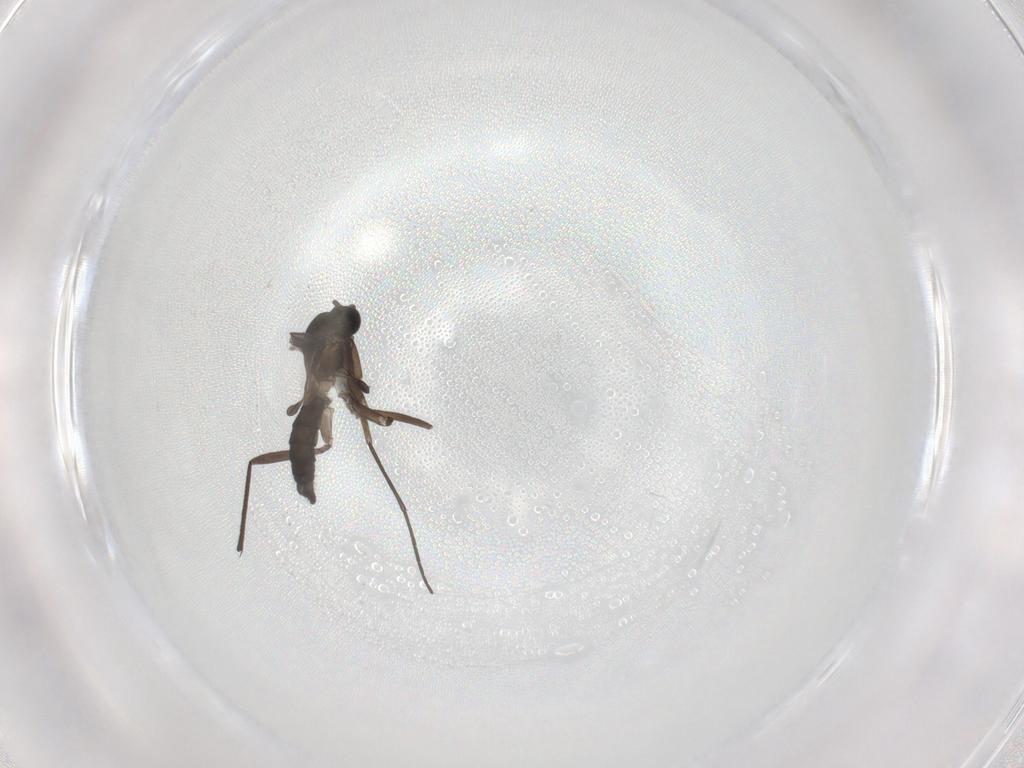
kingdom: Animalia
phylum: Arthropoda
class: Insecta
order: Diptera
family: Sciaridae
